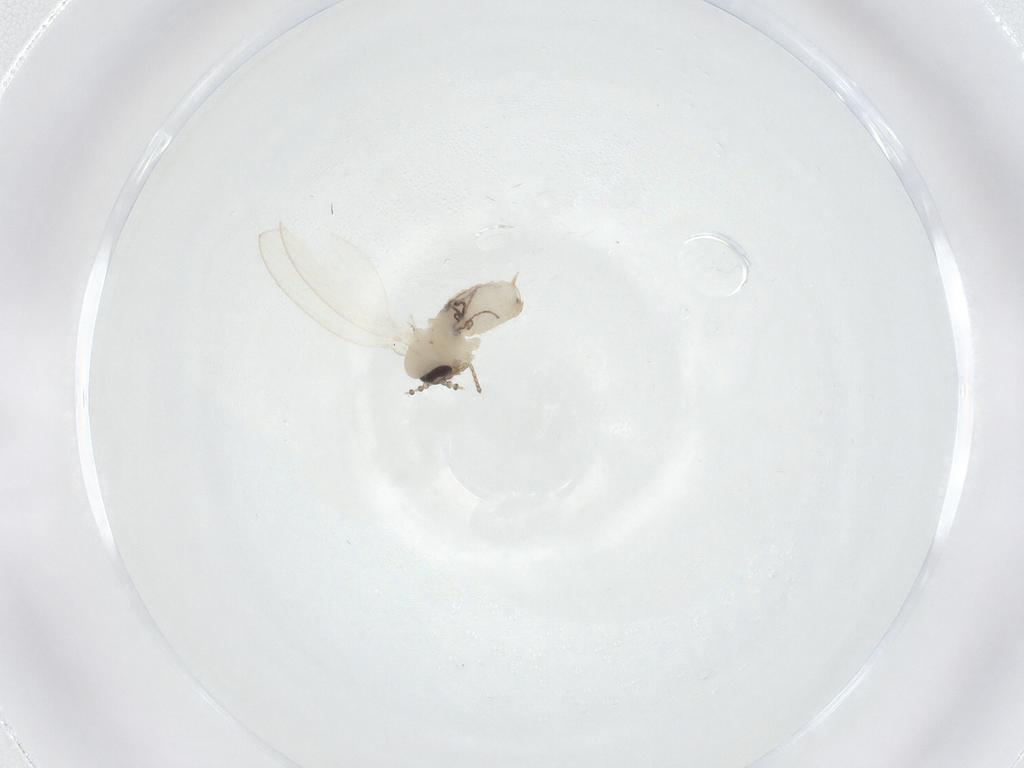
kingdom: Animalia
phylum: Arthropoda
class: Insecta
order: Diptera
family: Psychodidae
